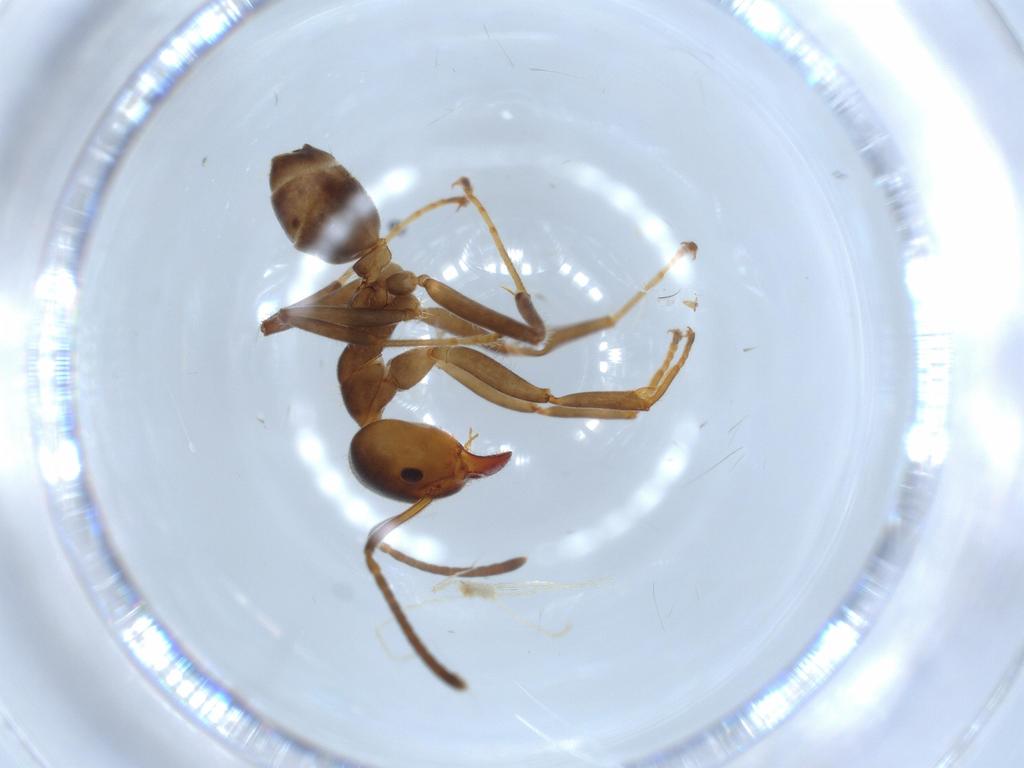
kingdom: Animalia
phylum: Arthropoda
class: Insecta
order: Hymenoptera
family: Formicidae
